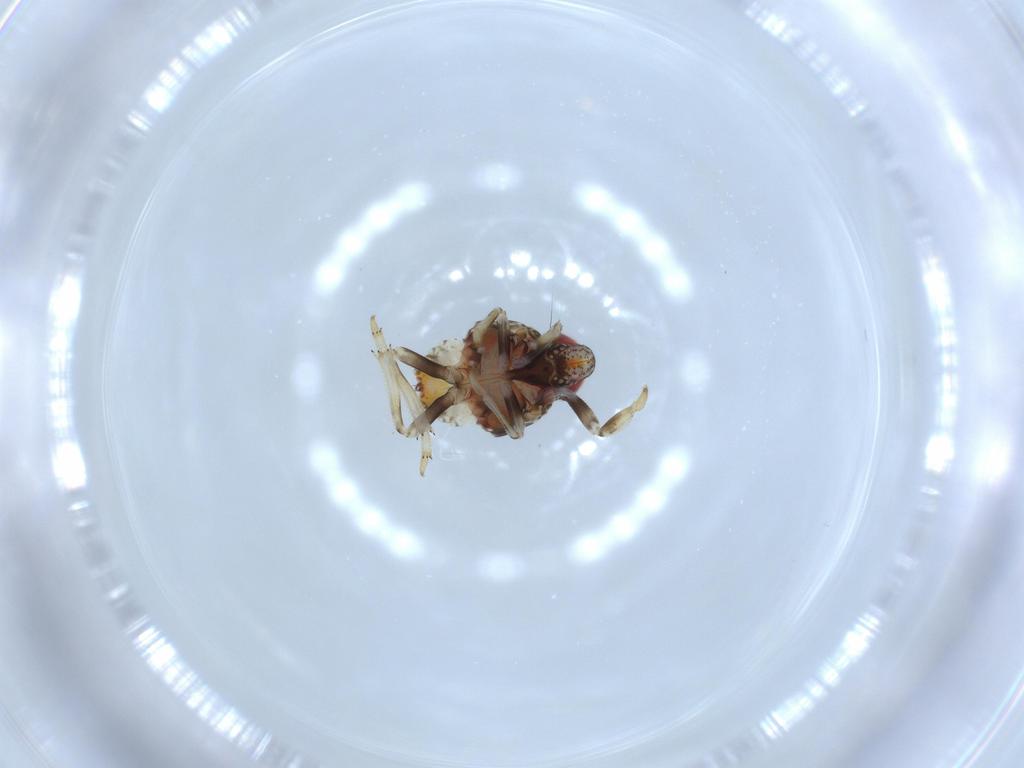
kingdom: Animalia
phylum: Arthropoda
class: Insecta
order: Hemiptera
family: Issidae
